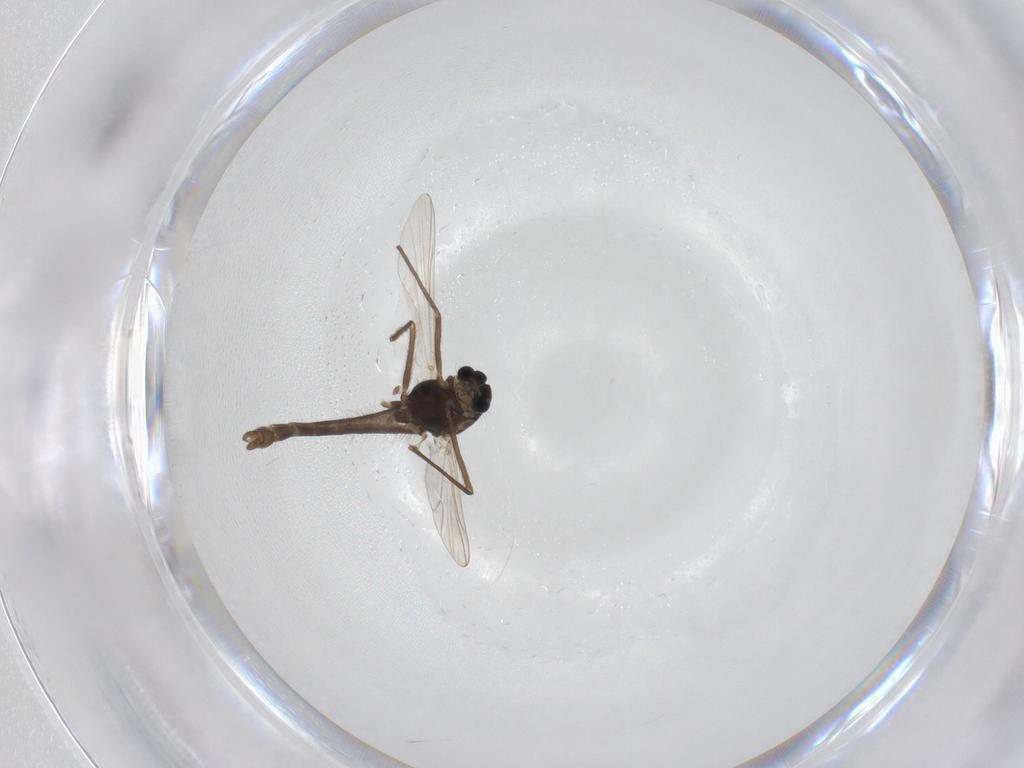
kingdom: Animalia
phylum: Arthropoda
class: Insecta
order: Diptera
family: Chironomidae
